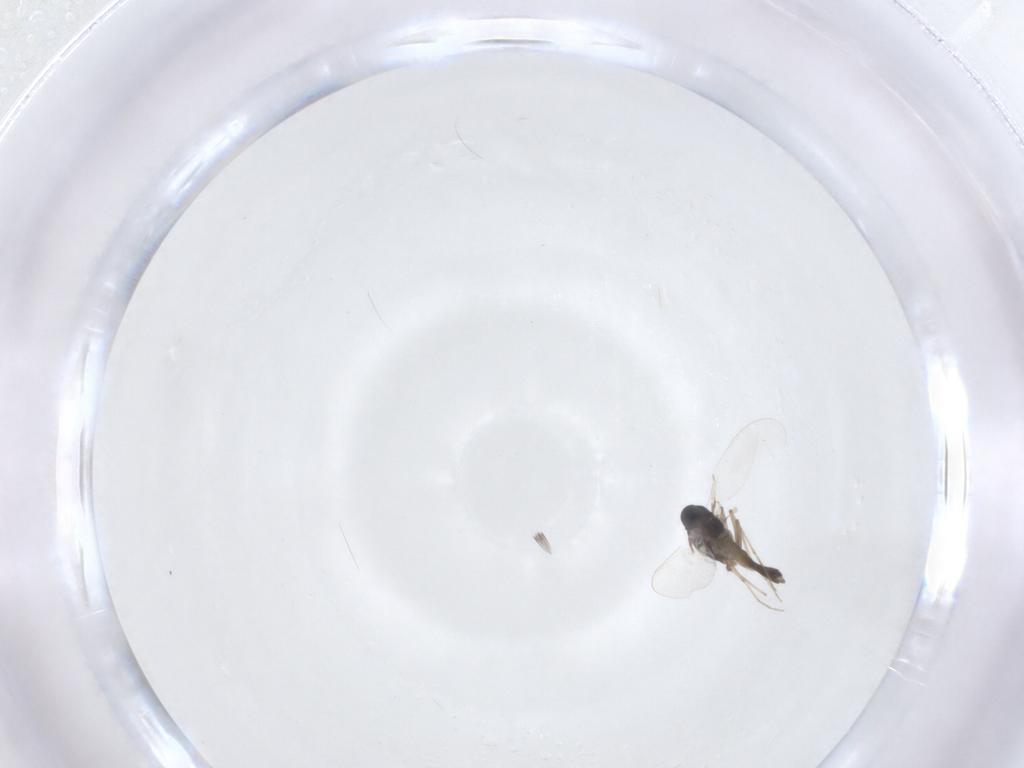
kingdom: Animalia
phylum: Arthropoda
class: Insecta
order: Diptera
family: Chironomidae
